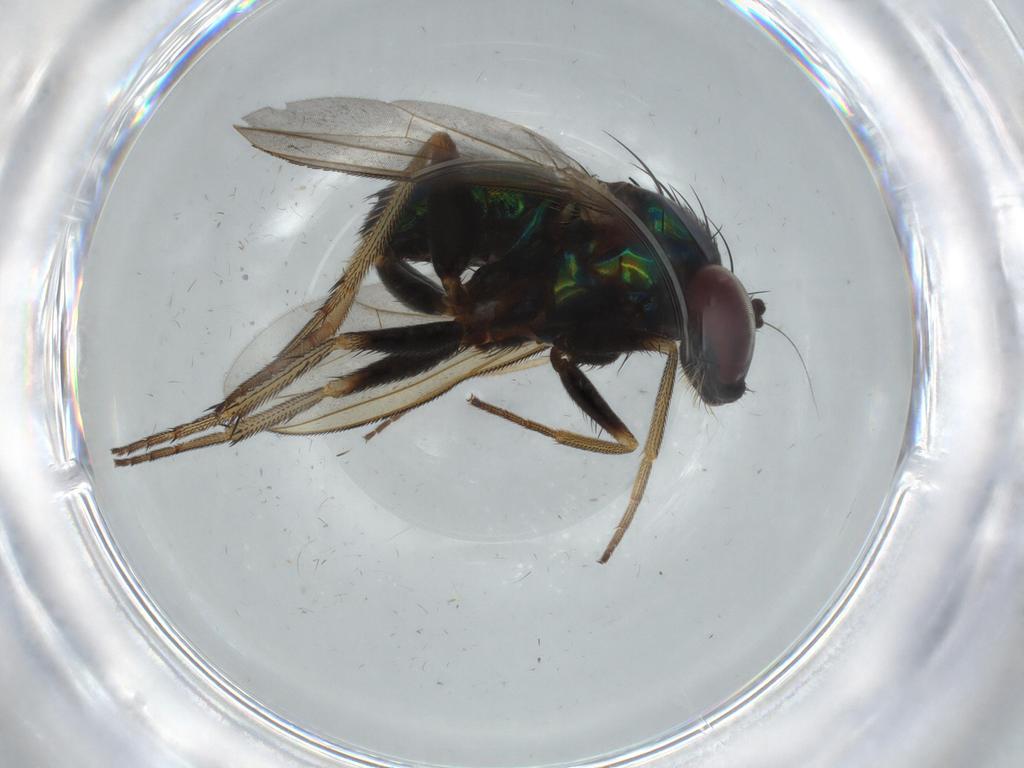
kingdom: Animalia
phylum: Arthropoda
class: Insecta
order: Diptera
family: Dolichopodidae
